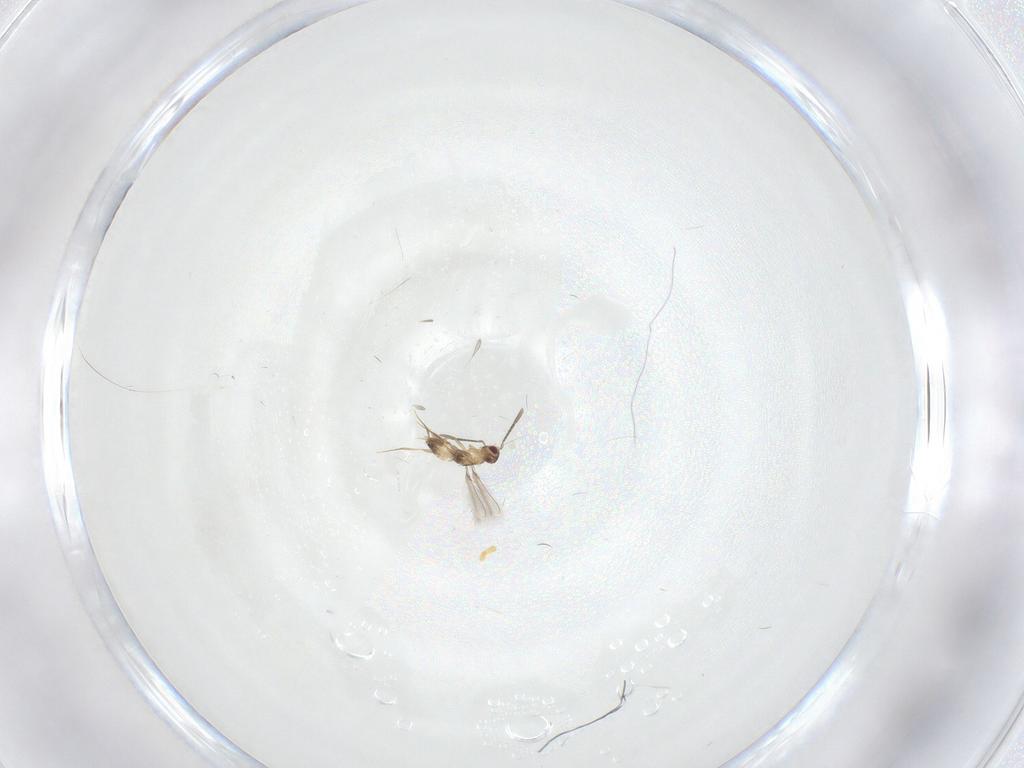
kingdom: Animalia
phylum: Arthropoda
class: Insecta
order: Hymenoptera
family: Mymaridae
